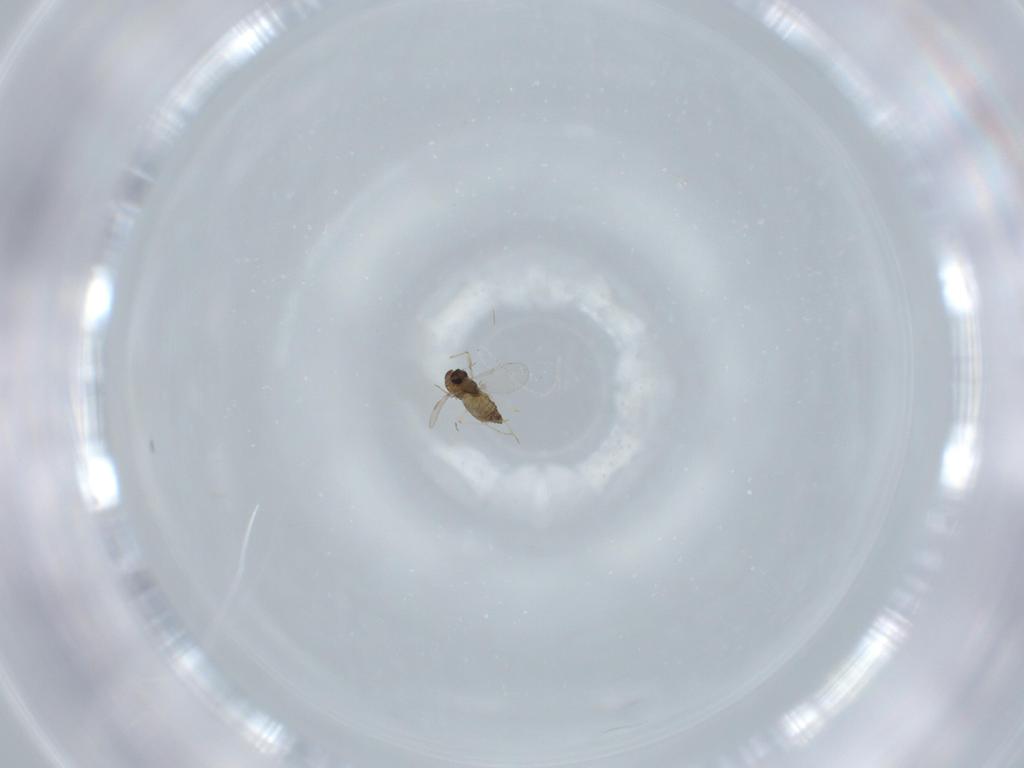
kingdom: Animalia
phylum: Arthropoda
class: Insecta
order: Diptera
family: Chironomidae
